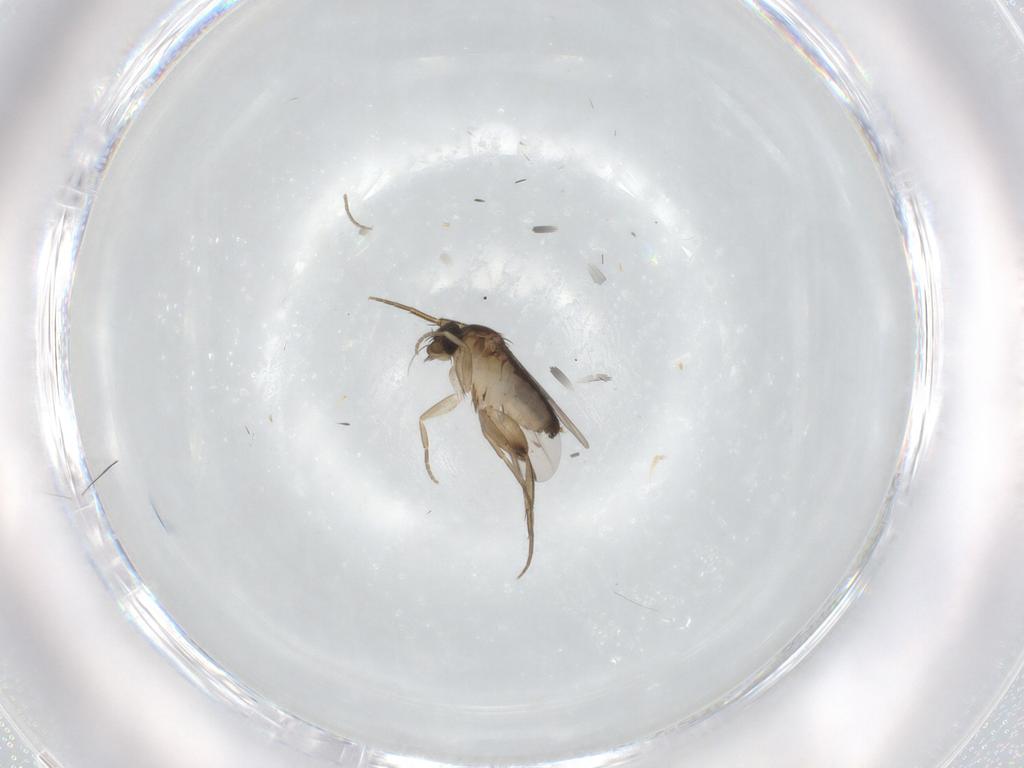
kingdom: Animalia
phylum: Arthropoda
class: Insecta
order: Diptera
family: Phoridae
